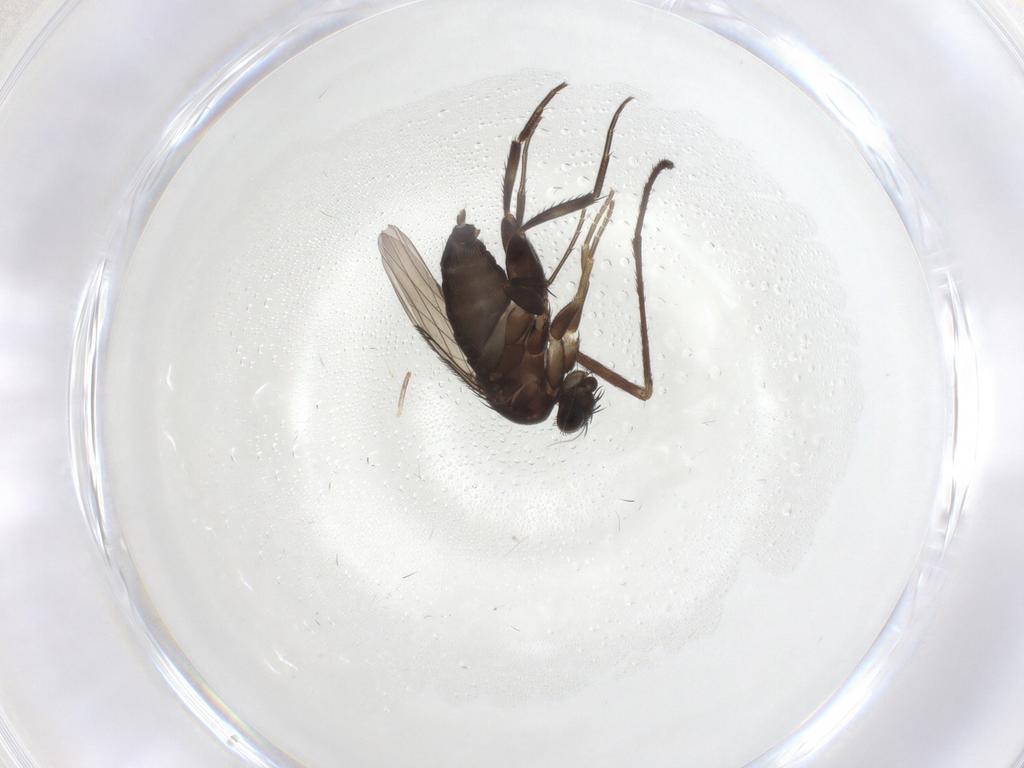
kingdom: Animalia
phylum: Arthropoda
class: Insecta
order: Diptera
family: Limoniidae
